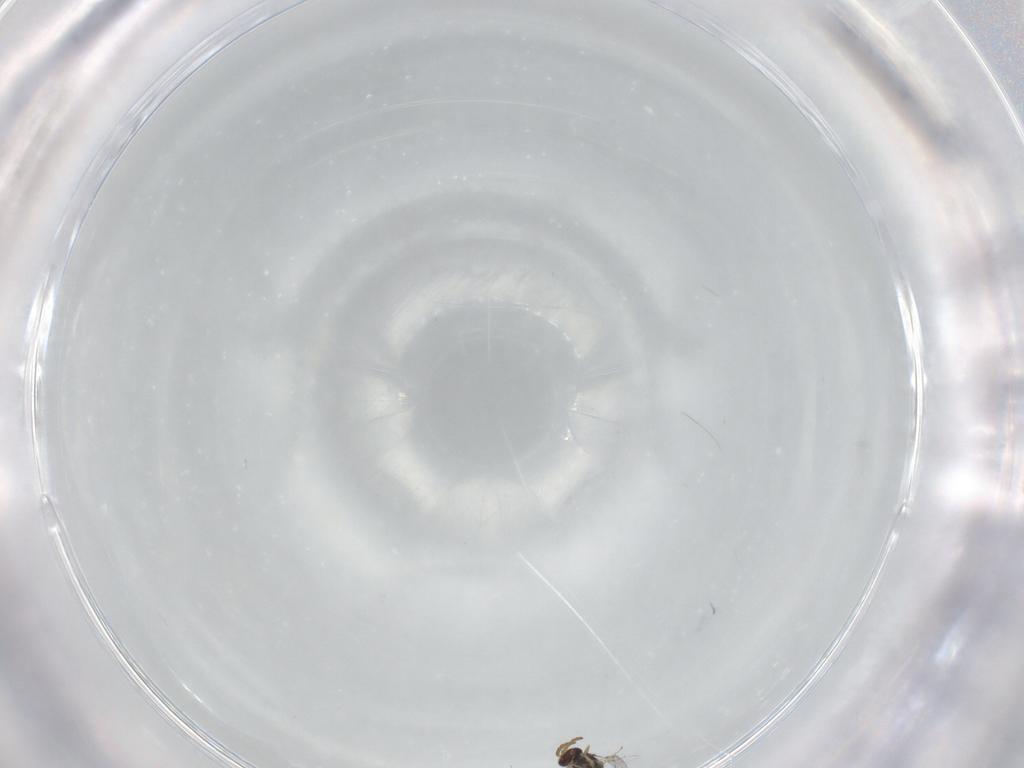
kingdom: Animalia
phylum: Arthropoda
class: Insecta
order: Hymenoptera
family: Aphelinidae
